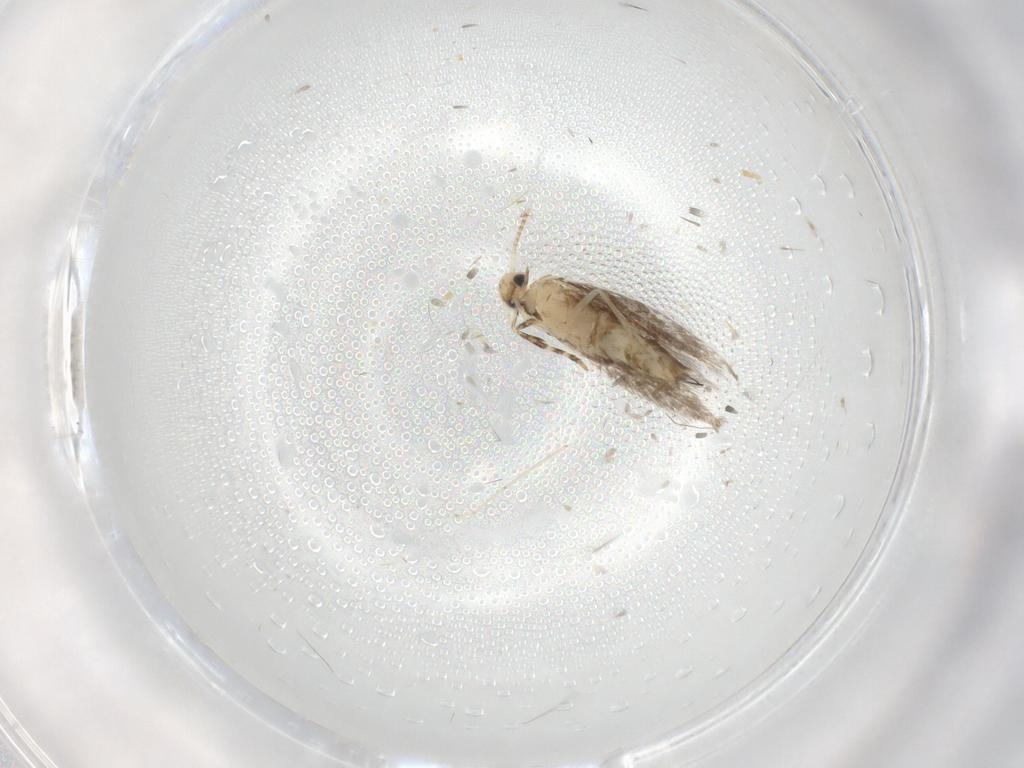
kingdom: Animalia
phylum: Arthropoda
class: Insecta
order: Lepidoptera
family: Gracillariidae
